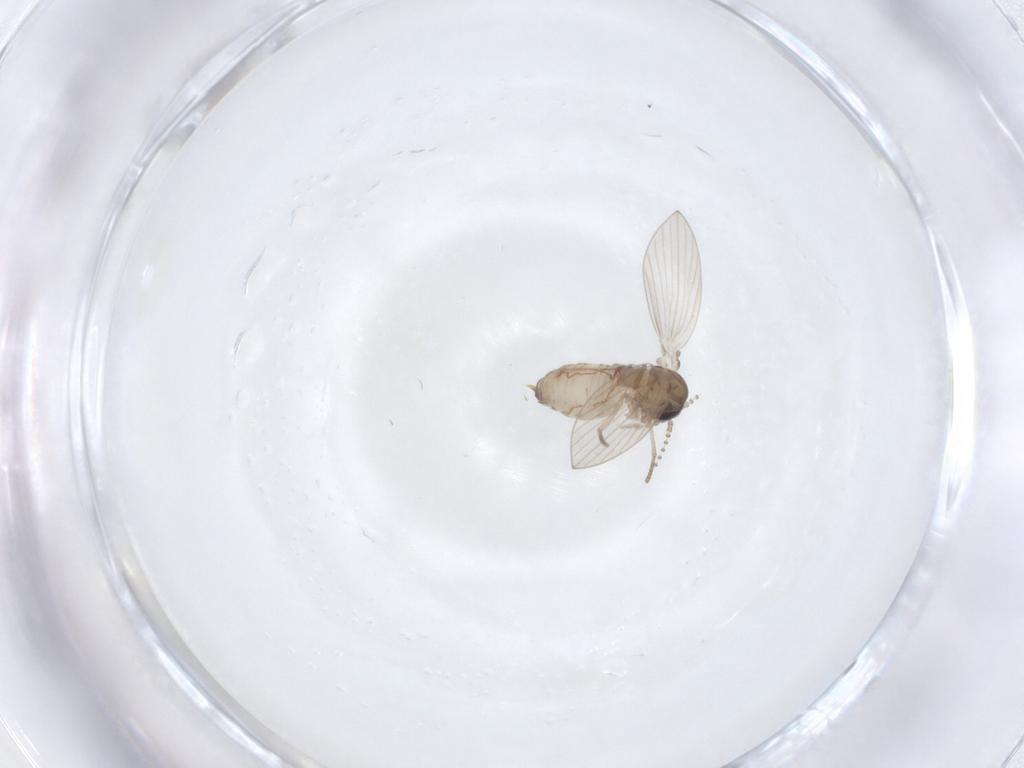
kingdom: Animalia
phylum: Arthropoda
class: Insecta
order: Diptera
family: Psychodidae
